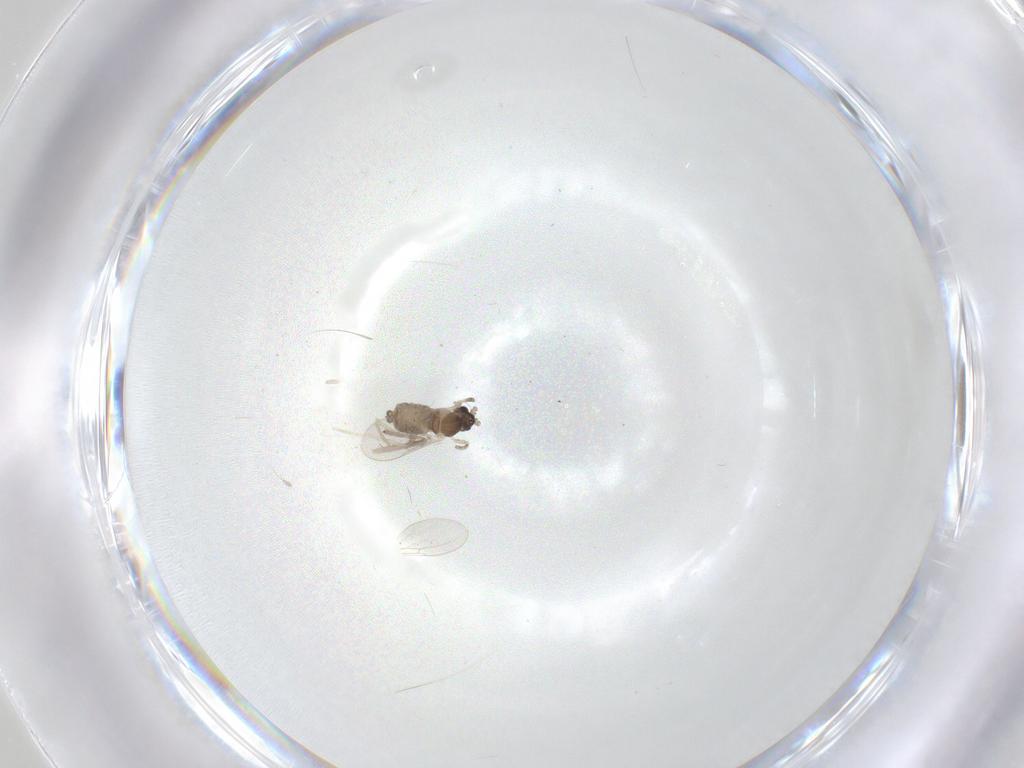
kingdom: Animalia
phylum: Arthropoda
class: Insecta
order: Diptera
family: Cecidomyiidae
